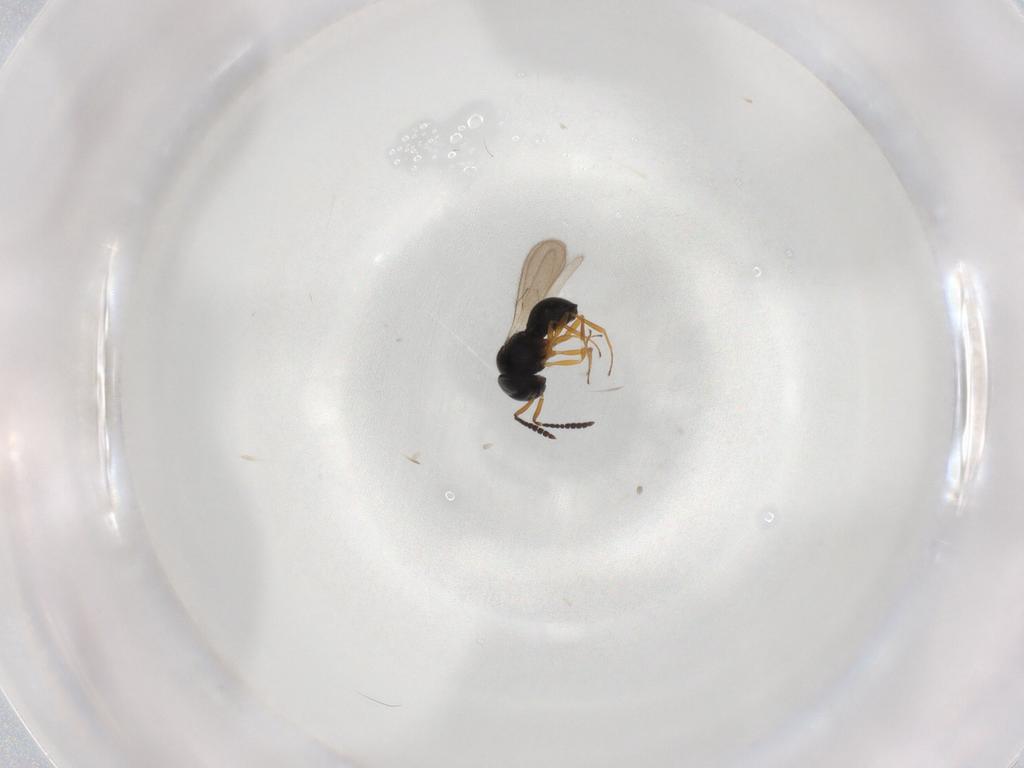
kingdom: Animalia
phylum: Arthropoda
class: Insecta
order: Hymenoptera
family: Scelionidae
